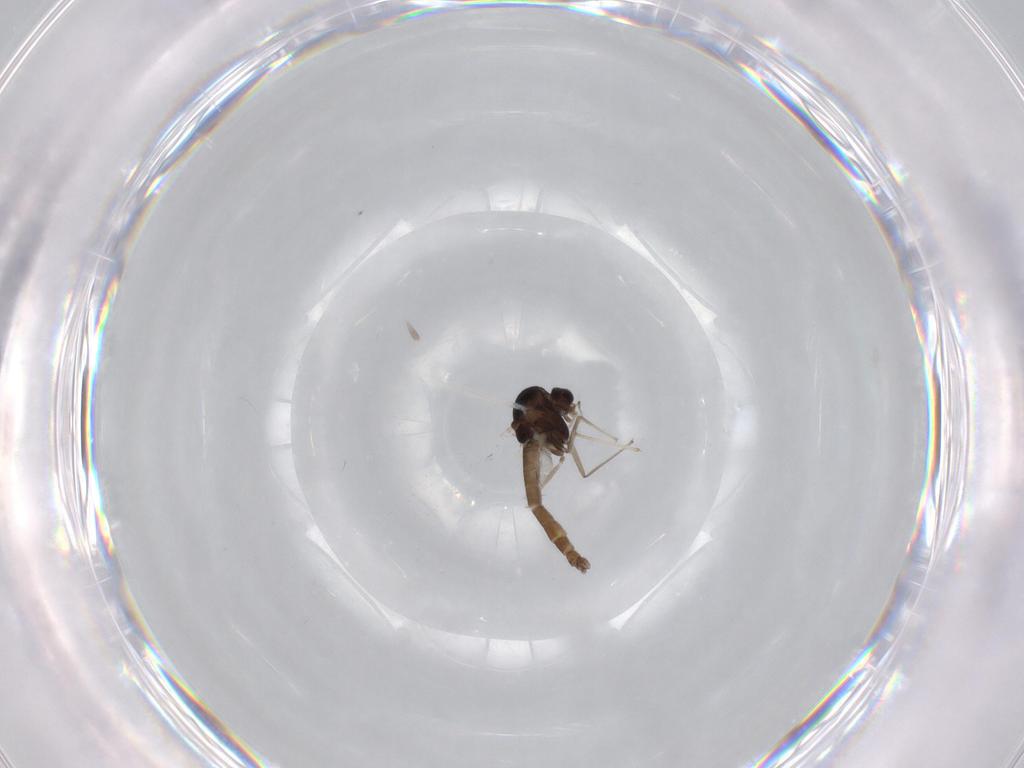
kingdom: Animalia
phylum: Arthropoda
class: Insecta
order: Diptera
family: Chironomidae
